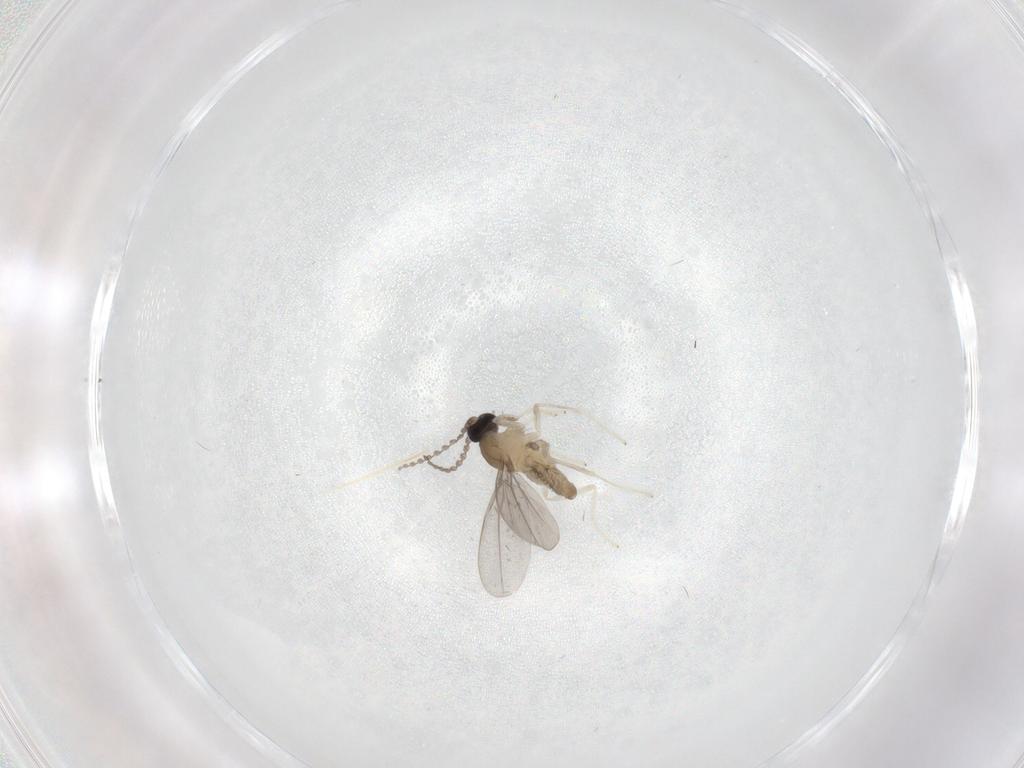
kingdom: Animalia
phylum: Arthropoda
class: Insecta
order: Diptera
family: Cecidomyiidae
